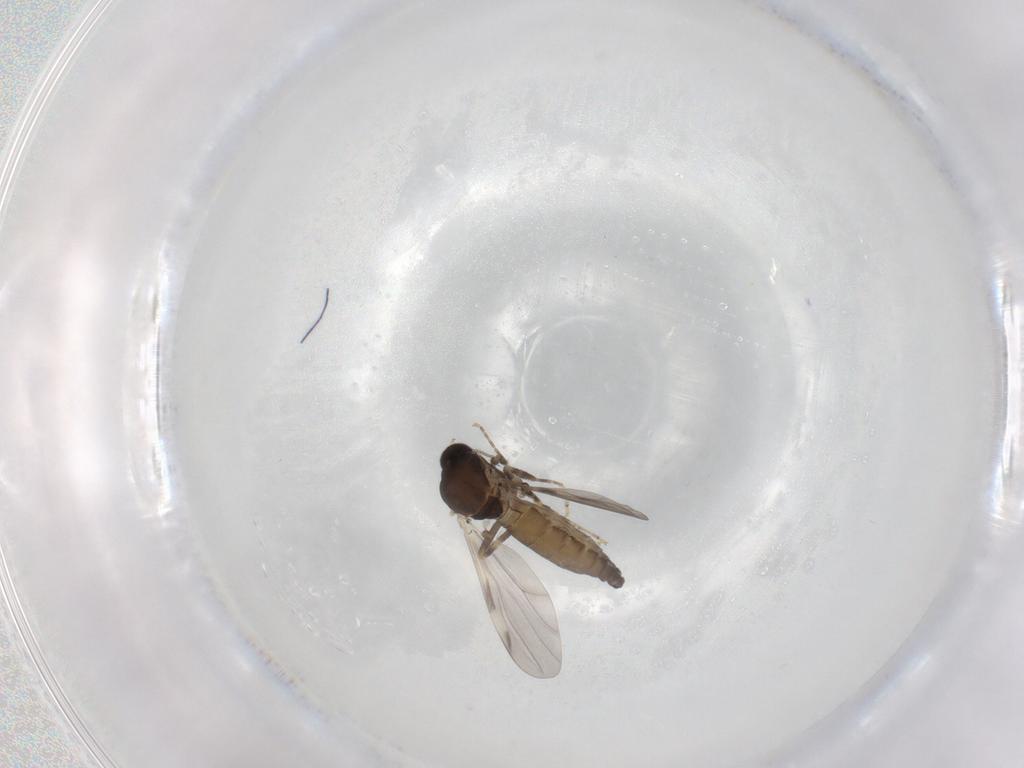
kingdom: Animalia
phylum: Arthropoda
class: Insecta
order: Diptera
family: Ceratopogonidae
